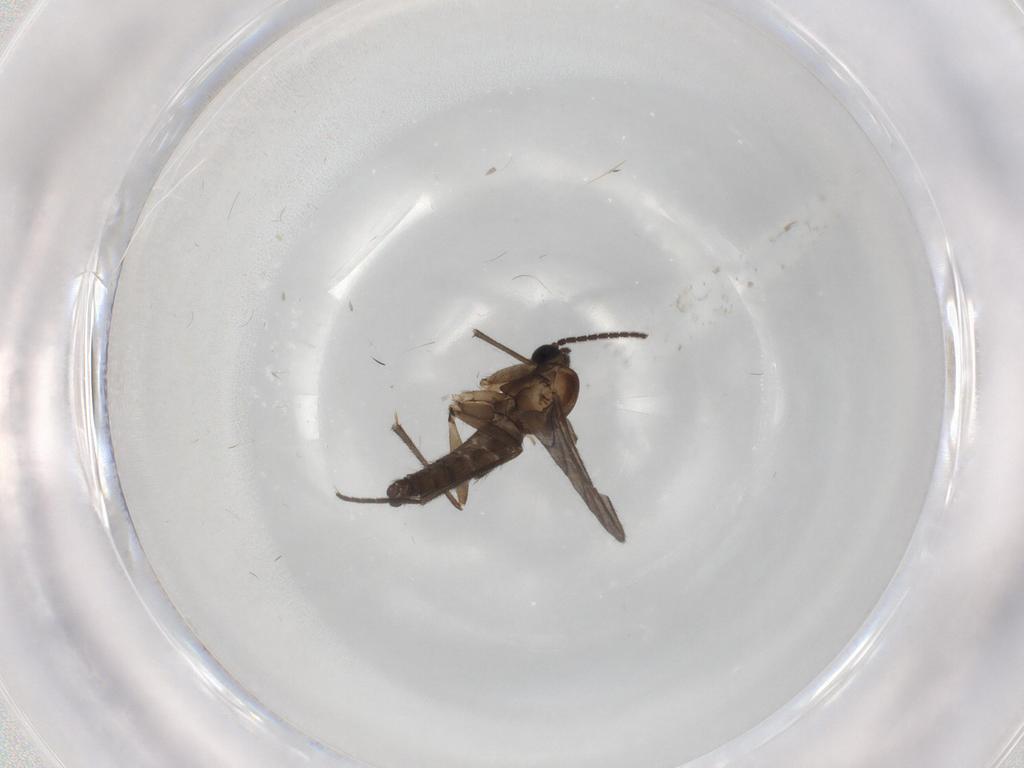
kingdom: Animalia
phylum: Arthropoda
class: Insecta
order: Diptera
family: Sciaridae
